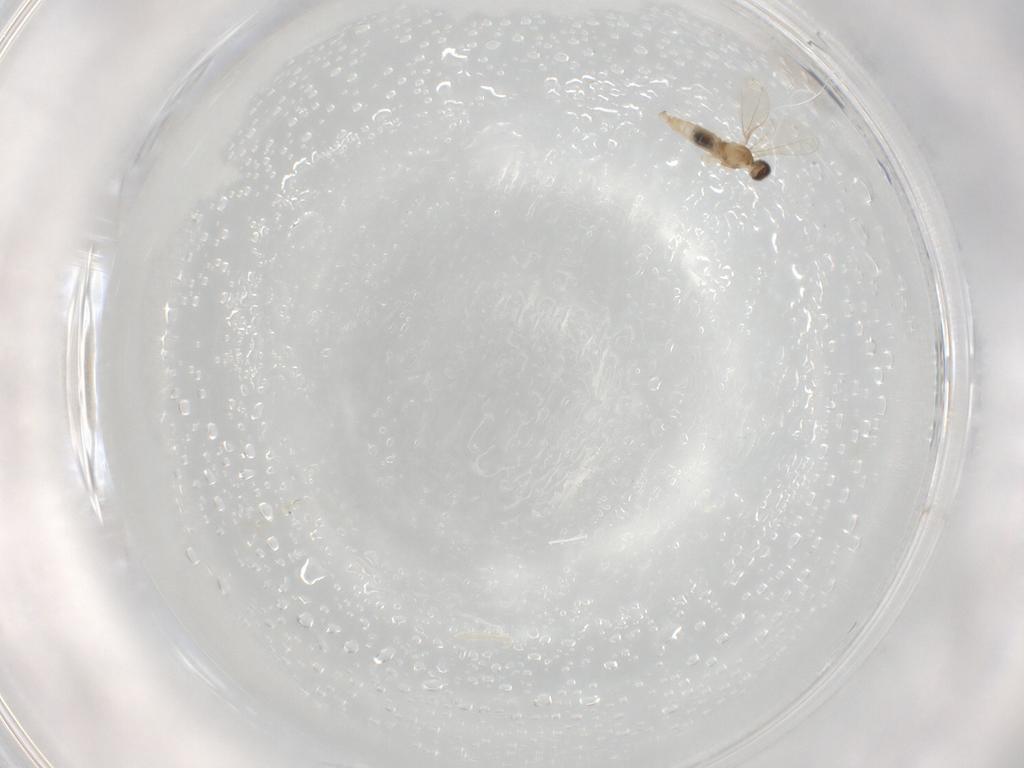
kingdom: Animalia
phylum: Arthropoda
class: Insecta
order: Diptera
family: Cecidomyiidae
